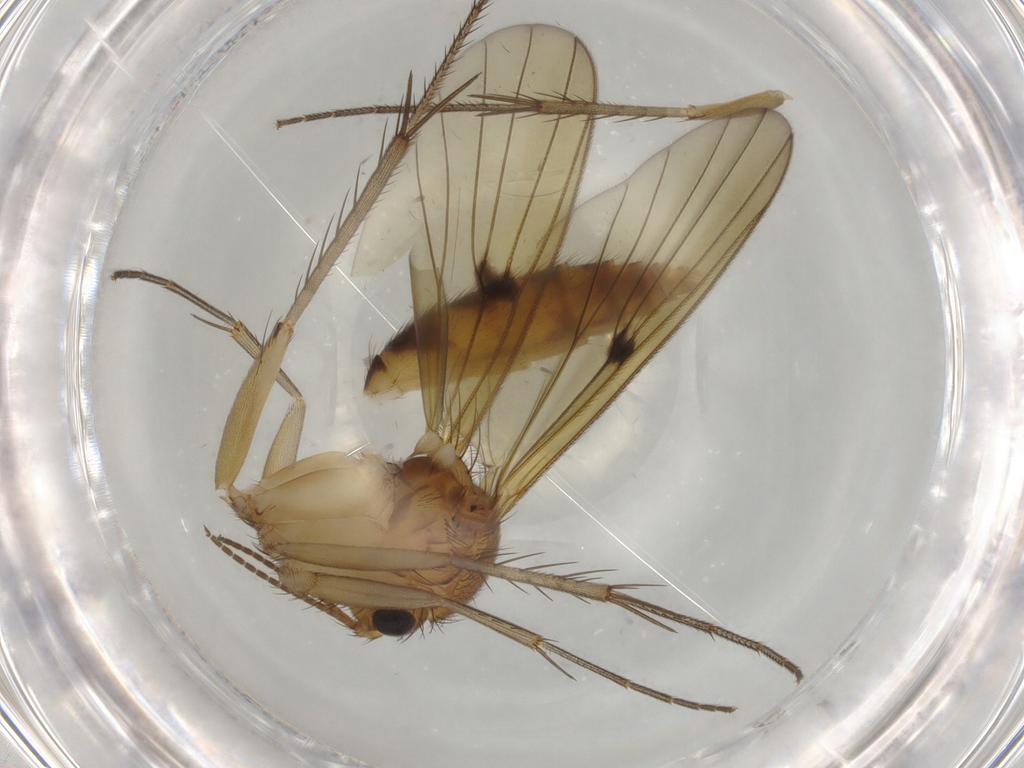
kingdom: Animalia
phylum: Arthropoda
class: Insecta
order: Diptera
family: Mycetophilidae
